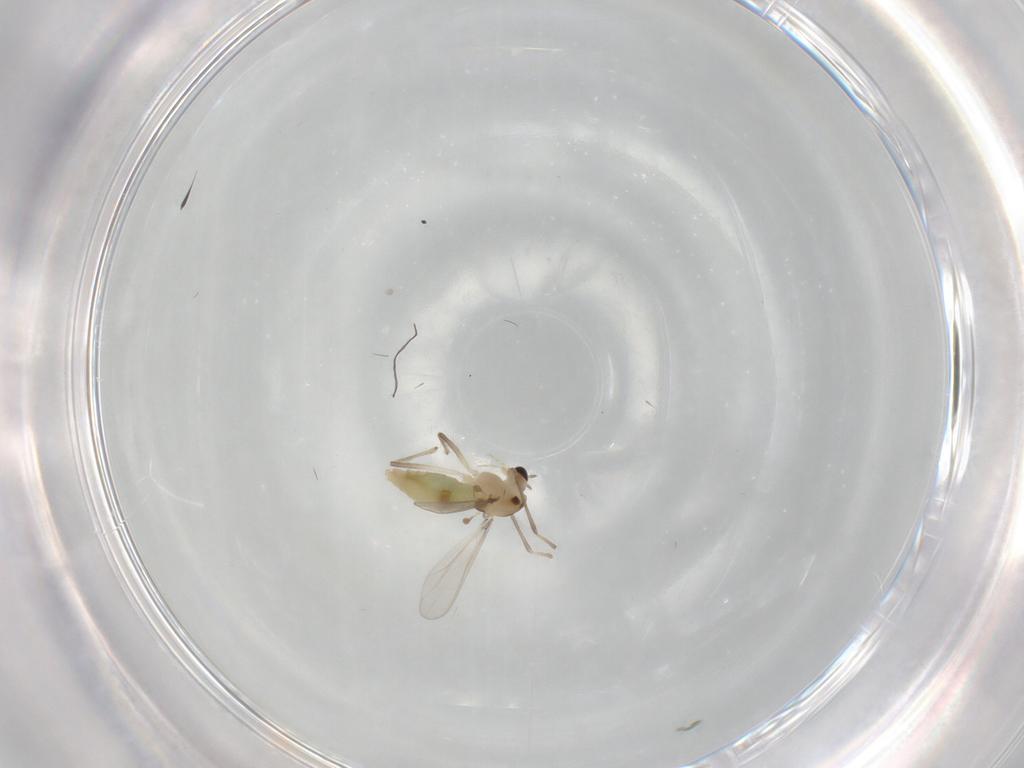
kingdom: Animalia
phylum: Arthropoda
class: Insecta
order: Diptera
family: Chironomidae
